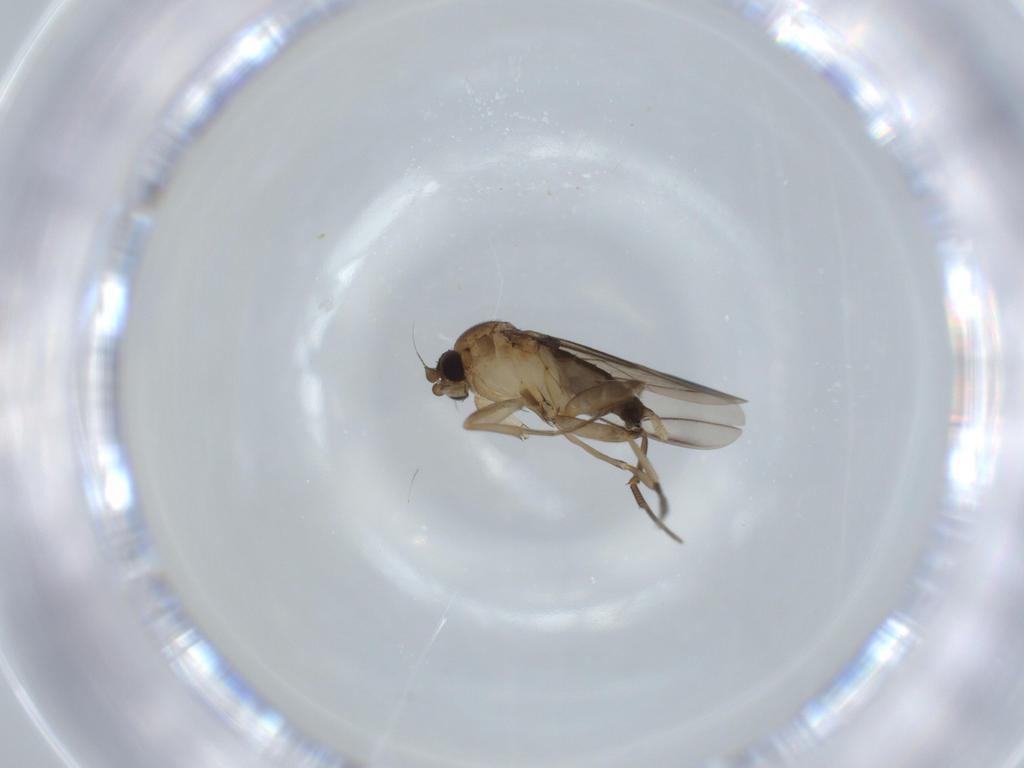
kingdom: Animalia
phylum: Arthropoda
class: Insecta
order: Diptera
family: Phoridae
